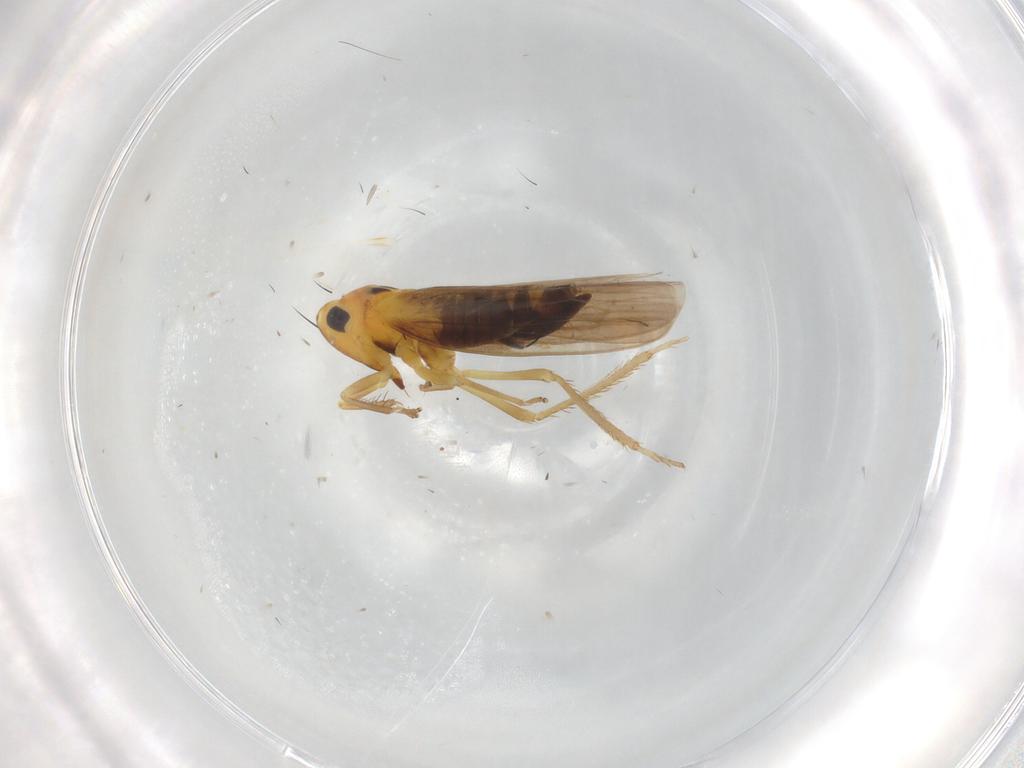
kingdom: Animalia
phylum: Arthropoda
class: Insecta
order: Hemiptera
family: Cicadellidae
